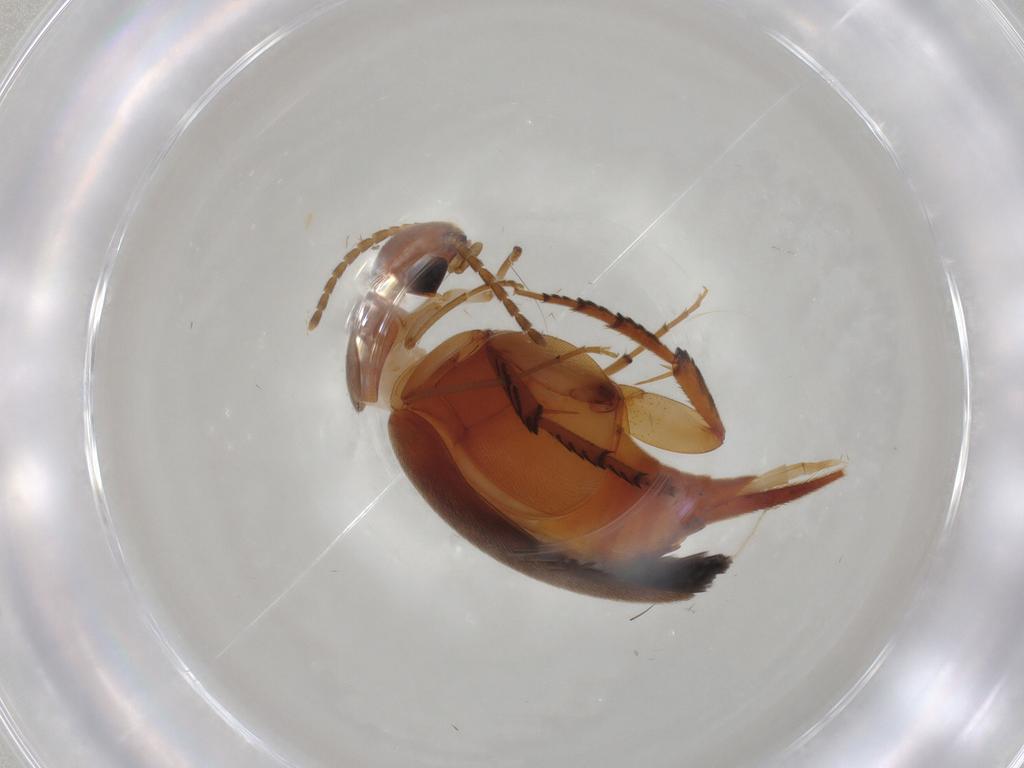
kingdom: Animalia
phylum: Arthropoda
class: Insecta
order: Coleoptera
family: Mordellidae
